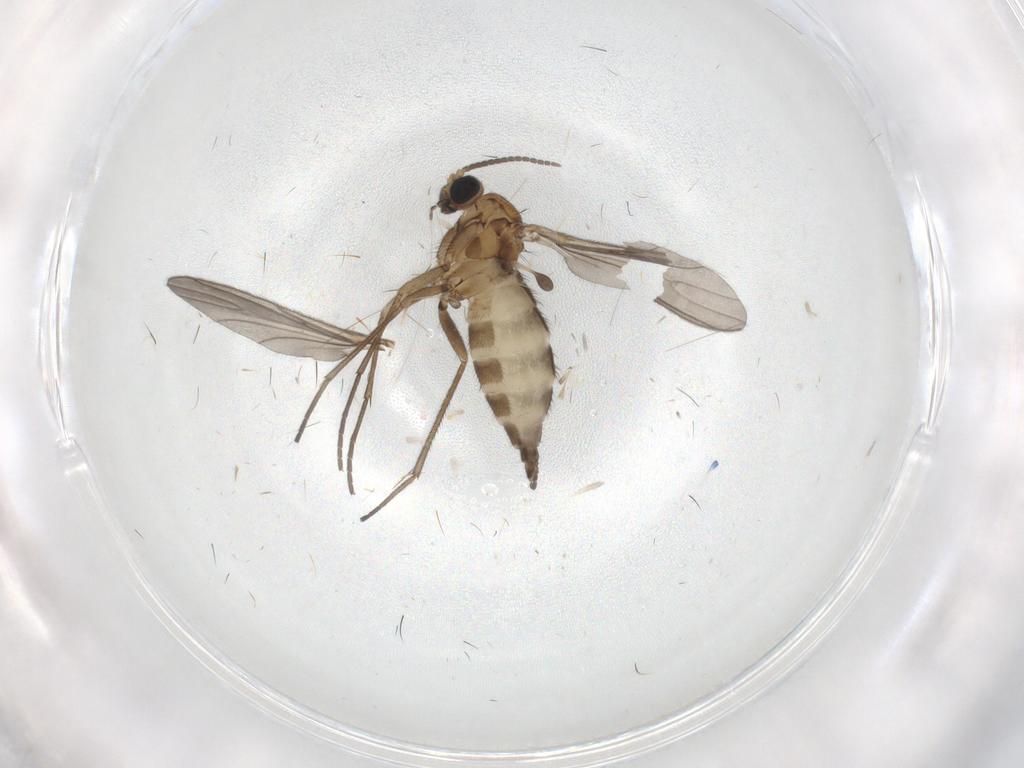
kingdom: Animalia
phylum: Arthropoda
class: Insecta
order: Diptera
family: Sciaridae
